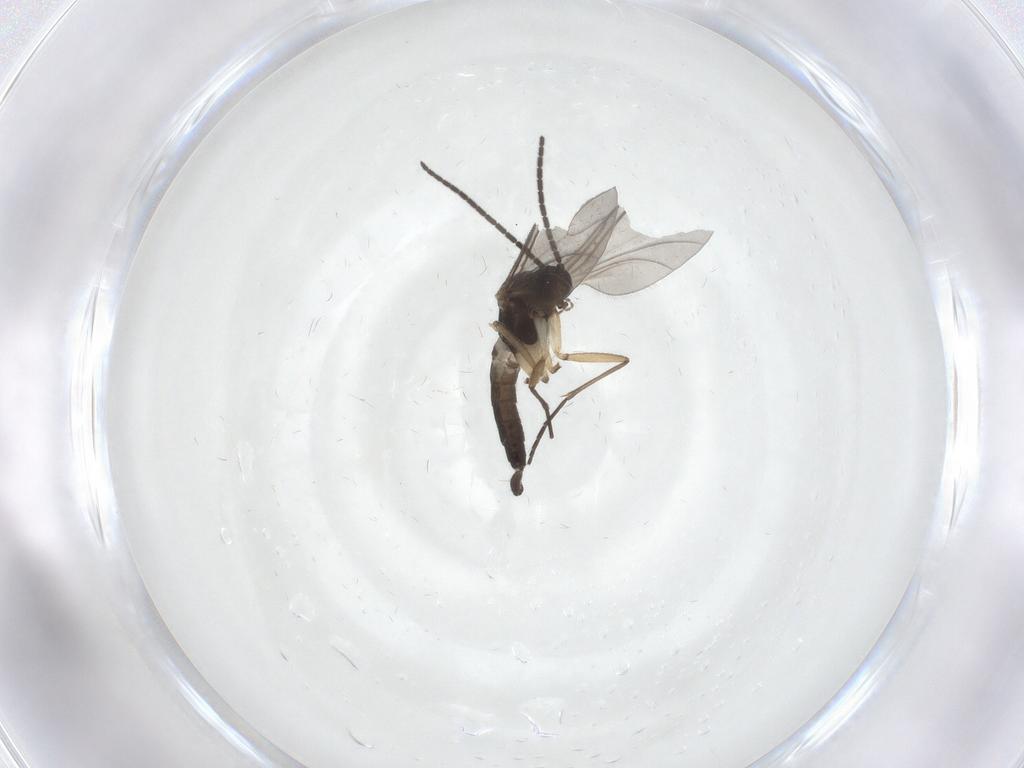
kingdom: Animalia
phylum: Arthropoda
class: Insecta
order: Diptera
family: Sciaridae
